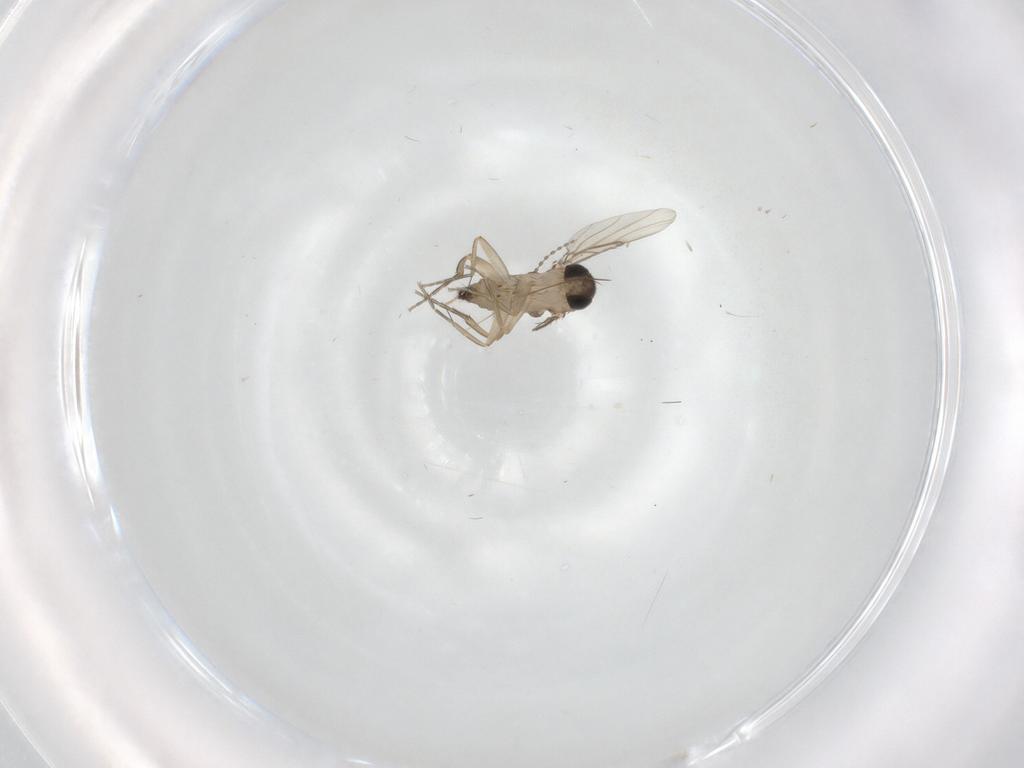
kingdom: Animalia
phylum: Arthropoda
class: Insecta
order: Diptera
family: Phoridae
